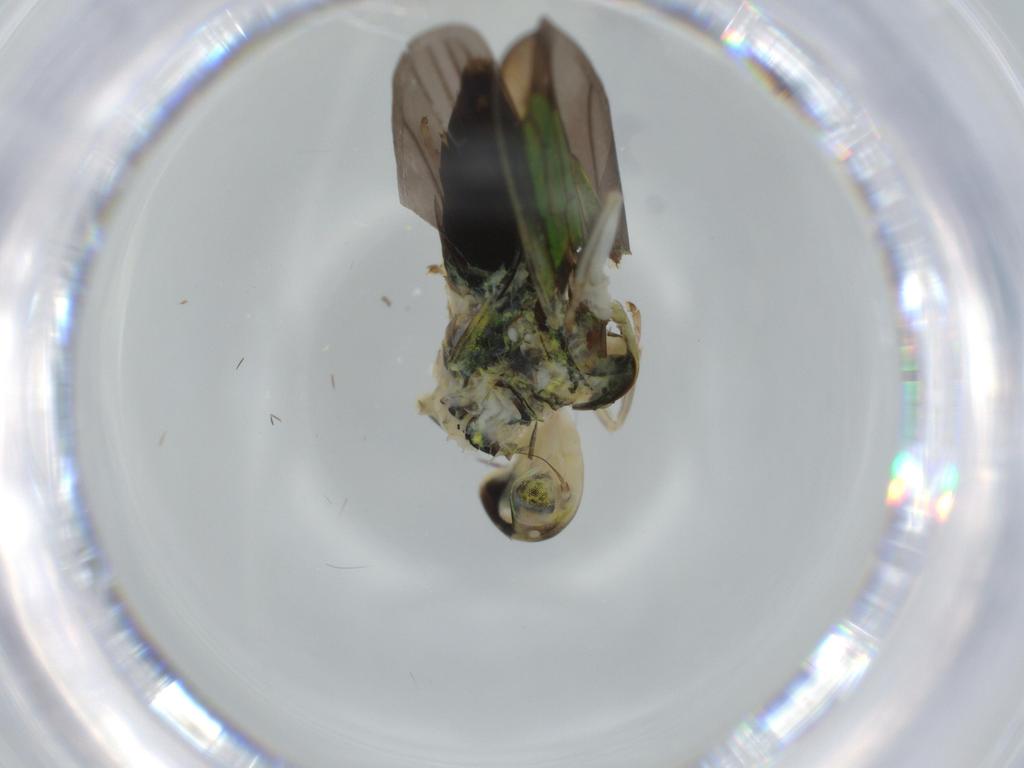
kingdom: Animalia
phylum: Arthropoda
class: Insecta
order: Hemiptera
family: Cicadellidae
